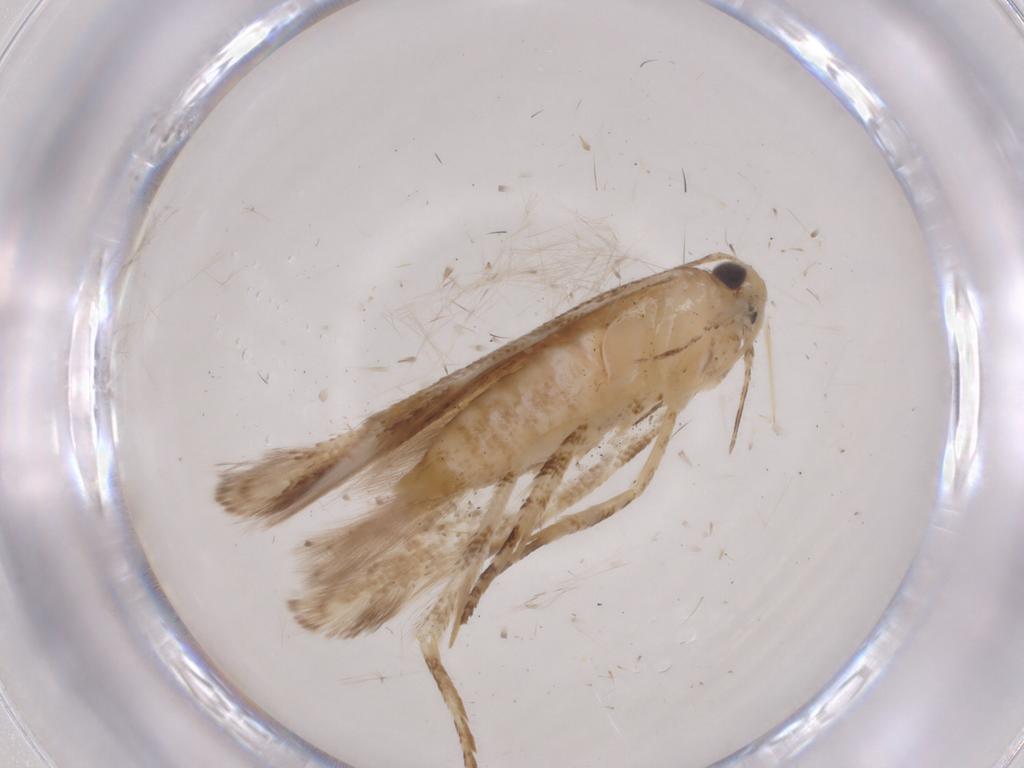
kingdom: Animalia
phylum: Arthropoda
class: Insecta
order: Lepidoptera
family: Gelechiidae
